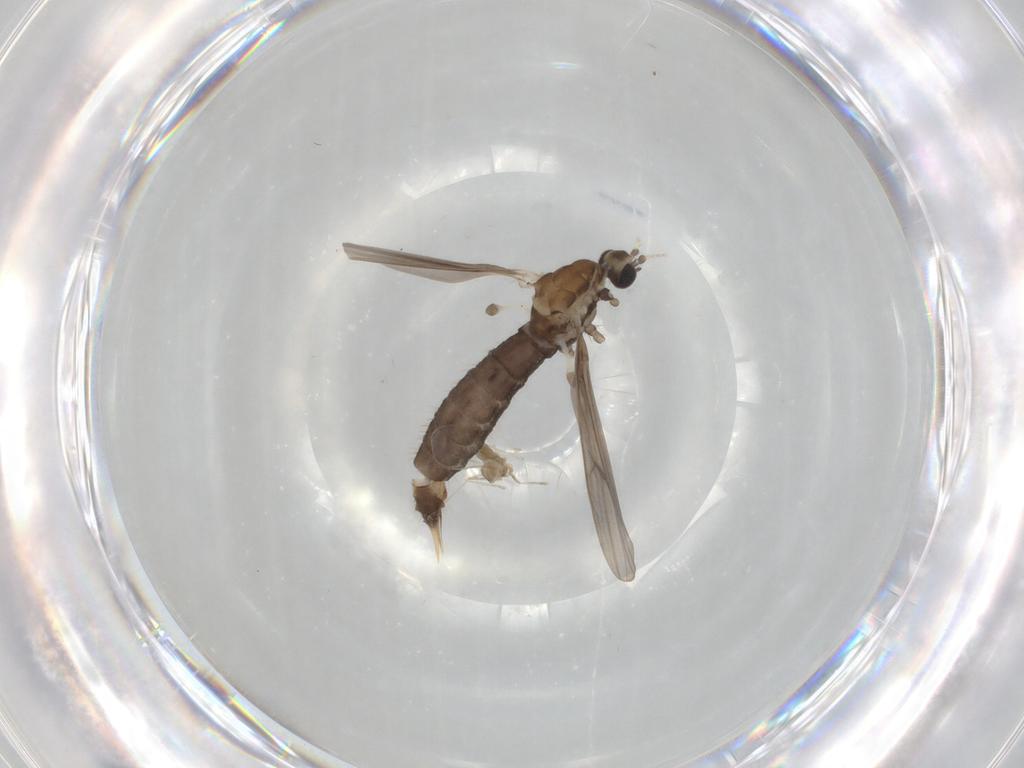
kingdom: Animalia
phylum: Arthropoda
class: Insecta
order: Diptera
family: Limoniidae
